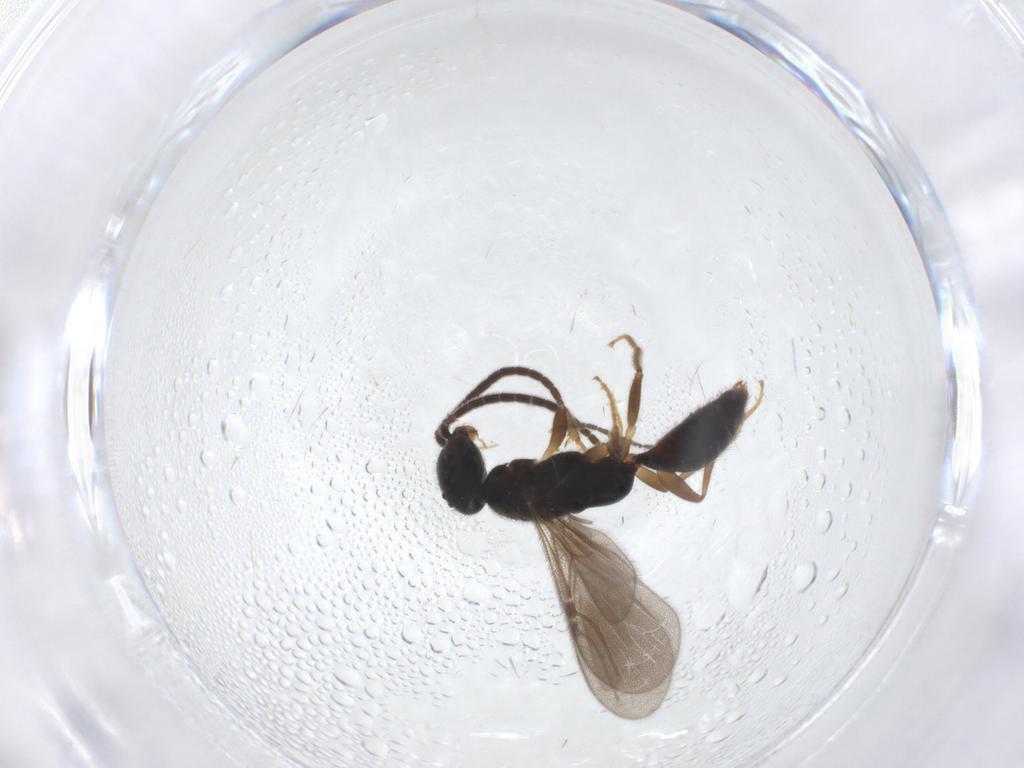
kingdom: Animalia
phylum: Arthropoda
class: Insecta
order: Hymenoptera
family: Bethylidae
